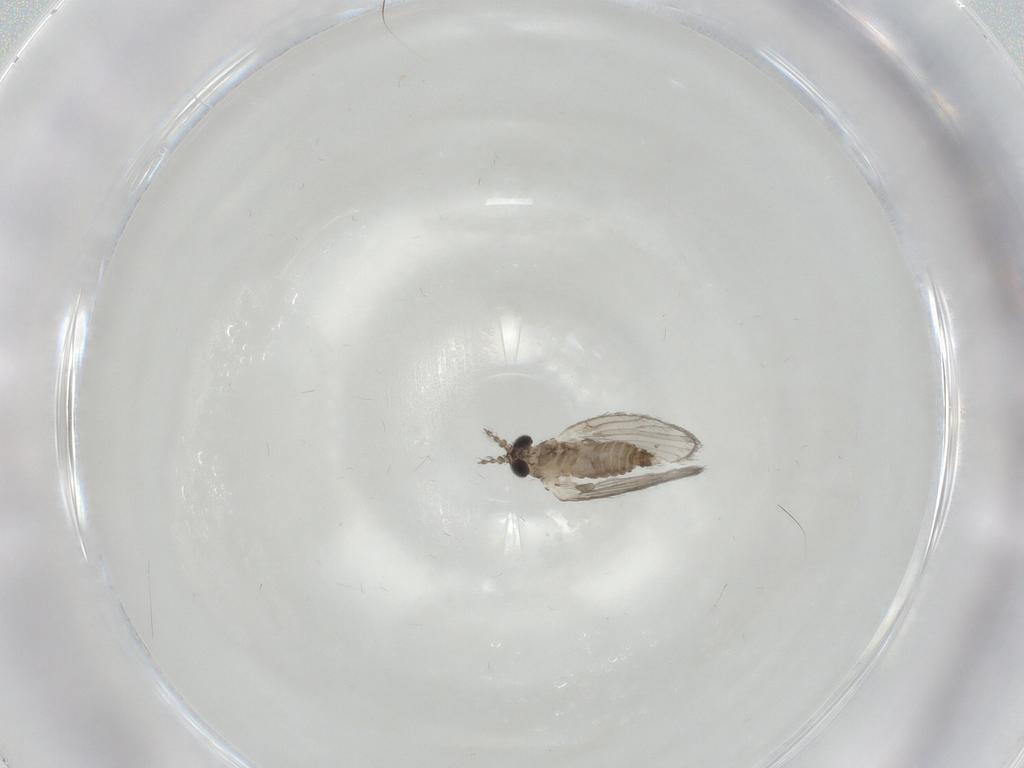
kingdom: Animalia
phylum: Arthropoda
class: Insecta
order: Diptera
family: Psychodidae
